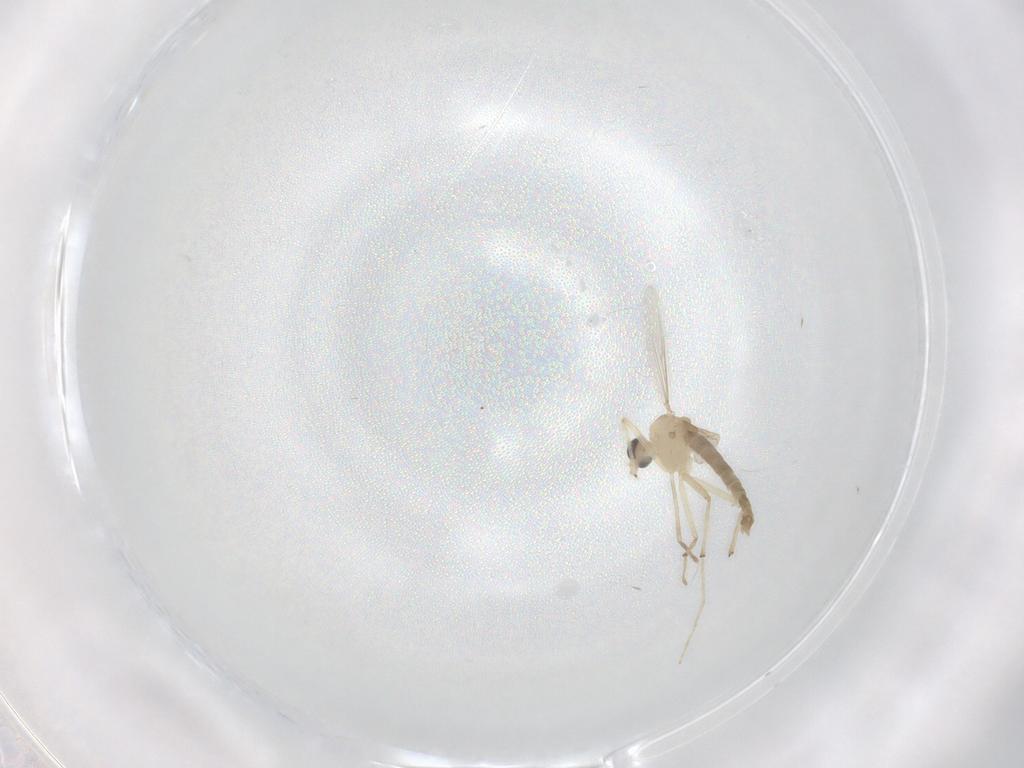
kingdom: Animalia
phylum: Arthropoda
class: Insecta
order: Diptera
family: Chironomidae
